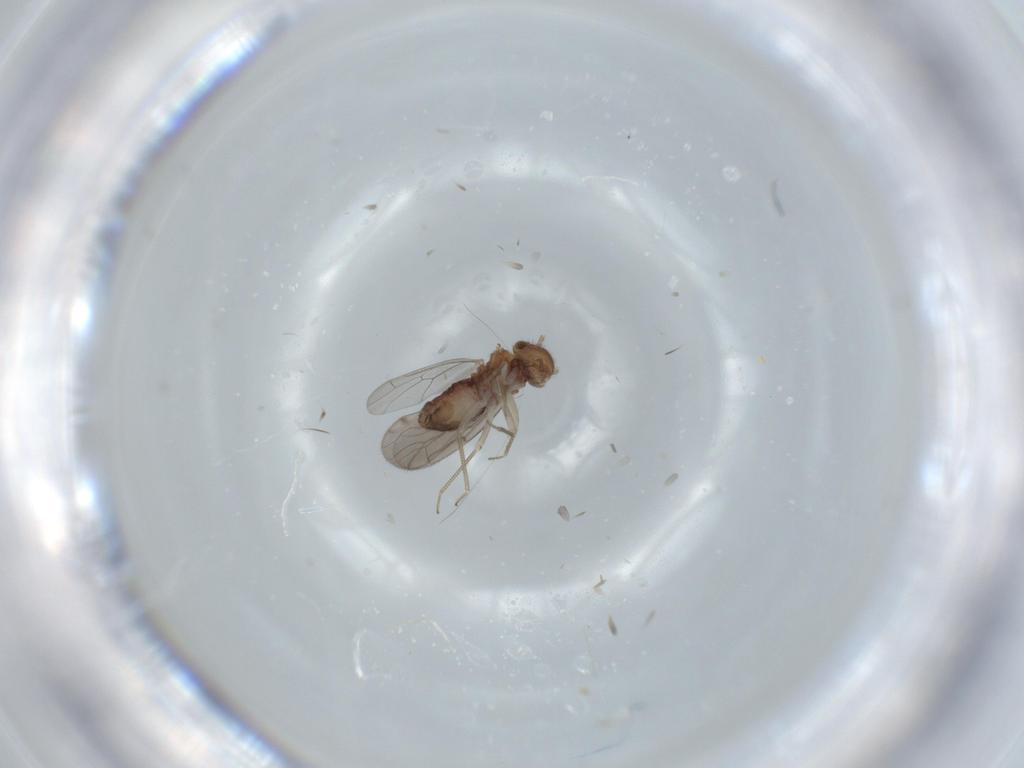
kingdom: Animalia
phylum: Arthropoda
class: Insecta
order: Psocodea
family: Ectopsocidae
